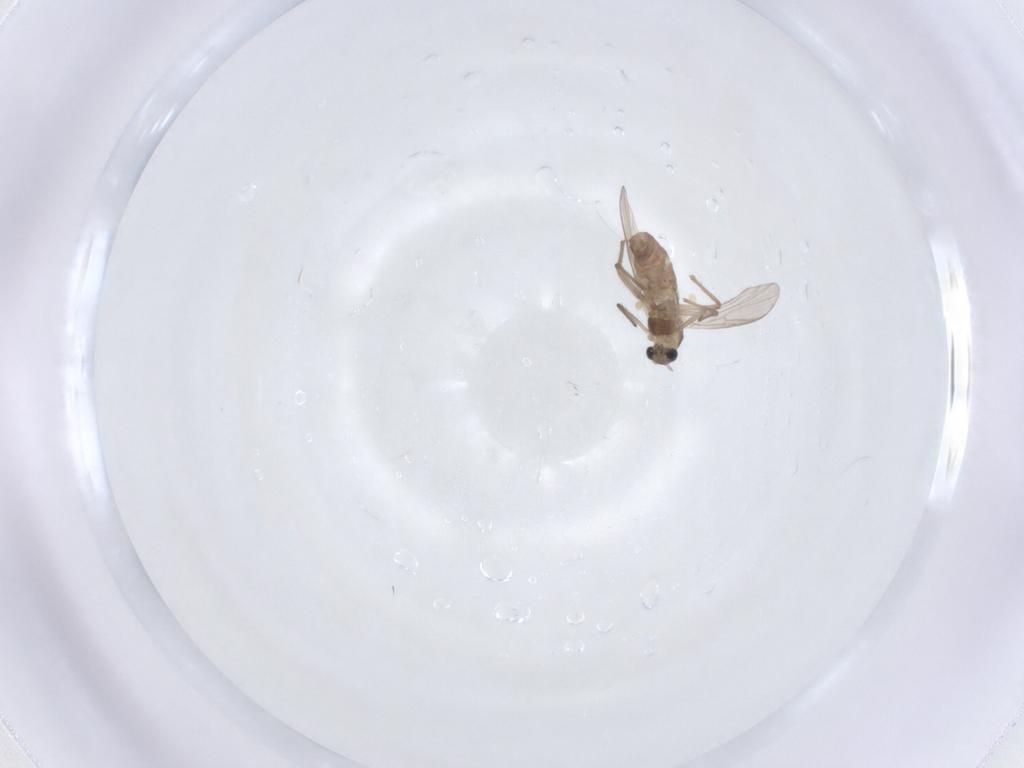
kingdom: Animalia
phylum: Arthropoda
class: Insecta
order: Diptera
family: Chironomidae
